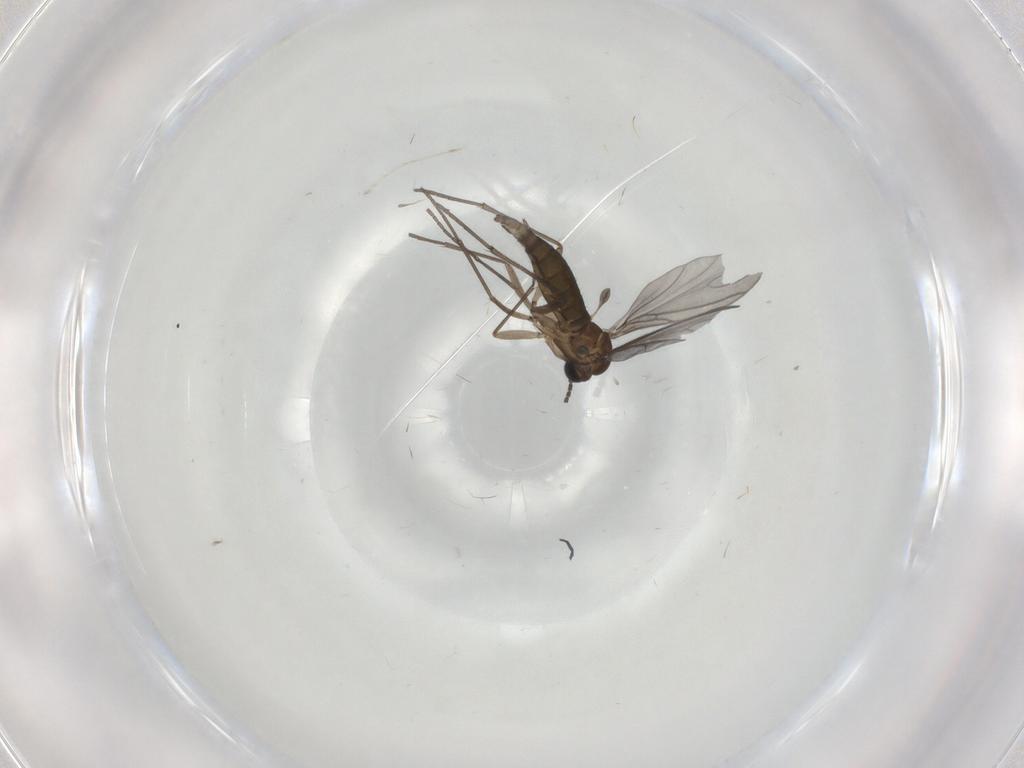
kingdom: Animalia
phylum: Arthropoda
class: Insecta
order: Diptera
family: Sciaridae
